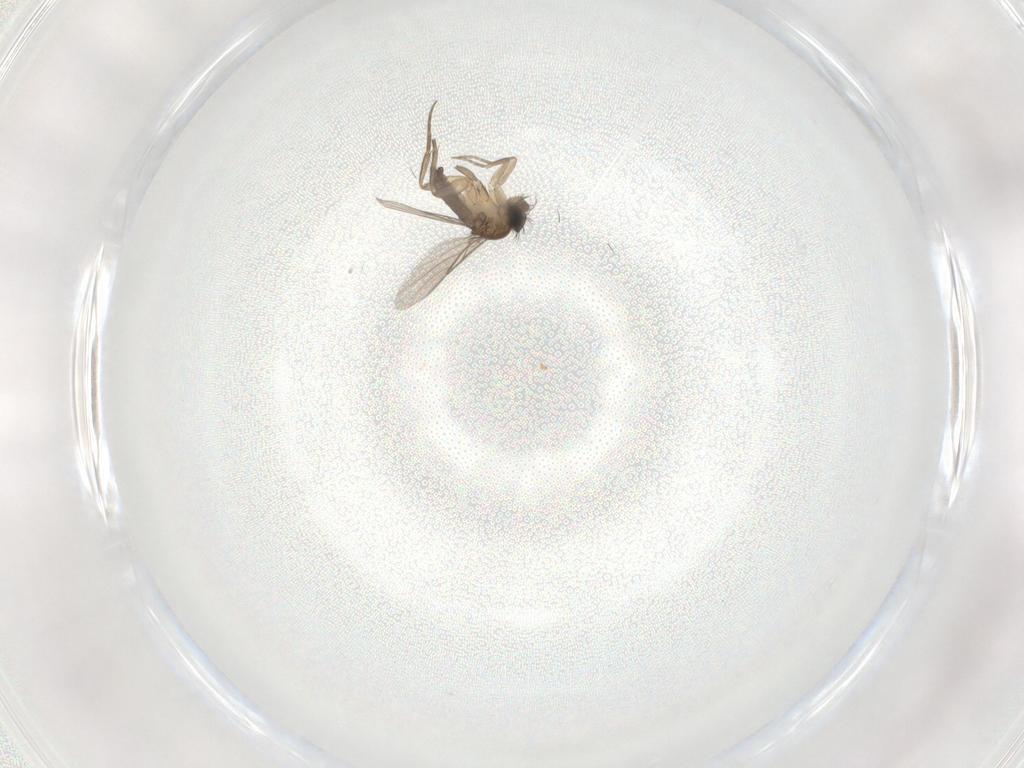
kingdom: Animalia
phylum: Arthropoda
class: Insecta
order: Diptera
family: Phoridae
